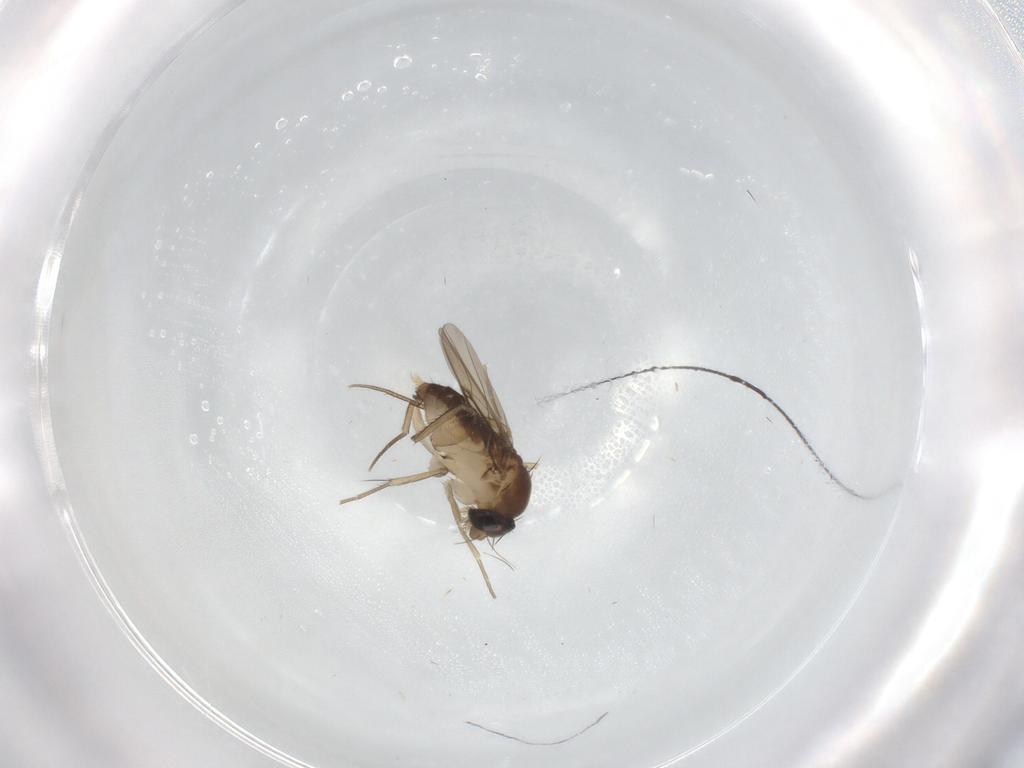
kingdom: Animalia
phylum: Arthropoda
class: Insecta
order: Diptera
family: Phoridae
